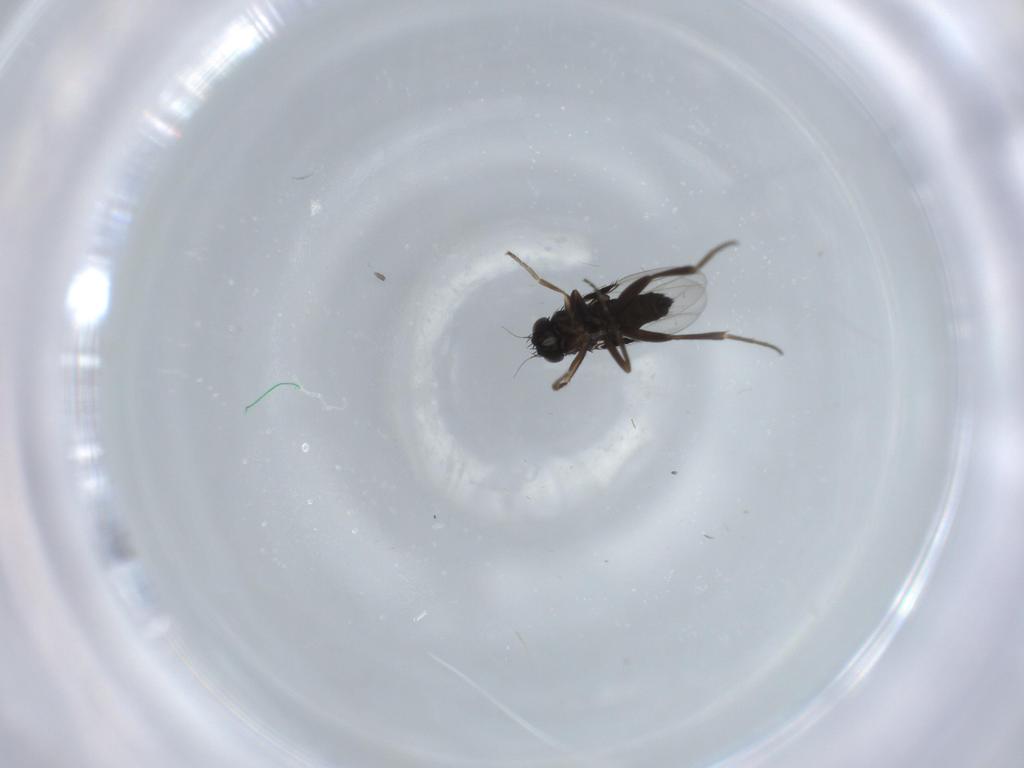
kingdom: Animalia
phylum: Arthropoda
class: Insecta
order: Diptera
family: Phoridae
